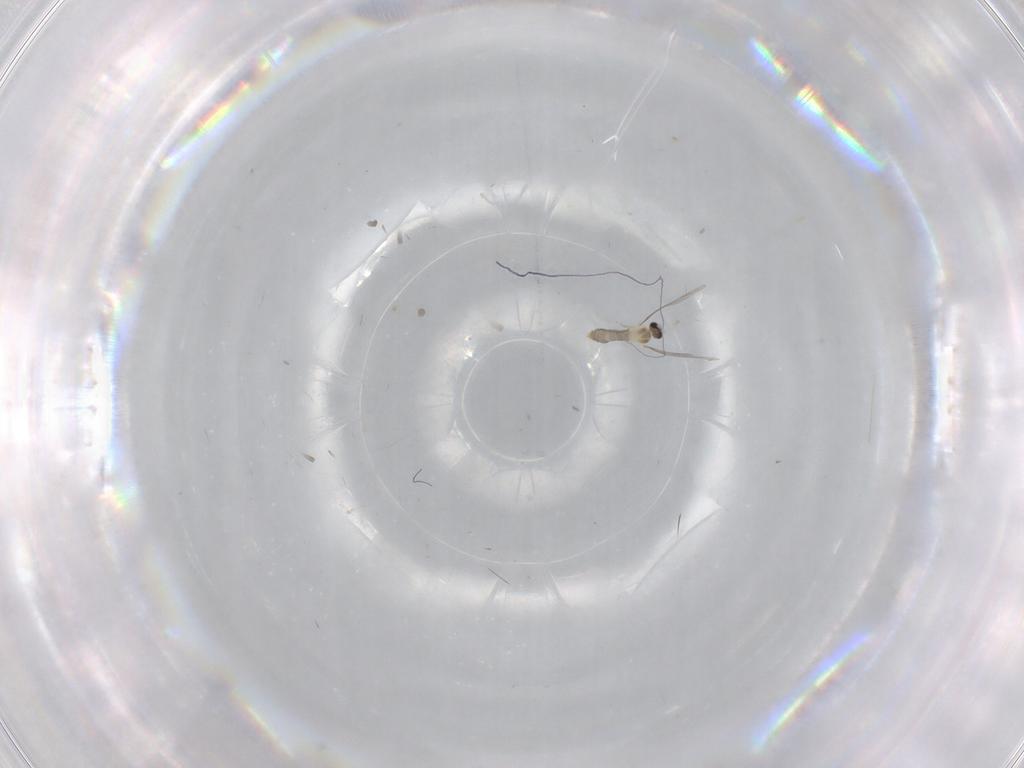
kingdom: Animalia
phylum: Arthropoda
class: Insecta
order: Diptera
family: Cecidomyiidae
